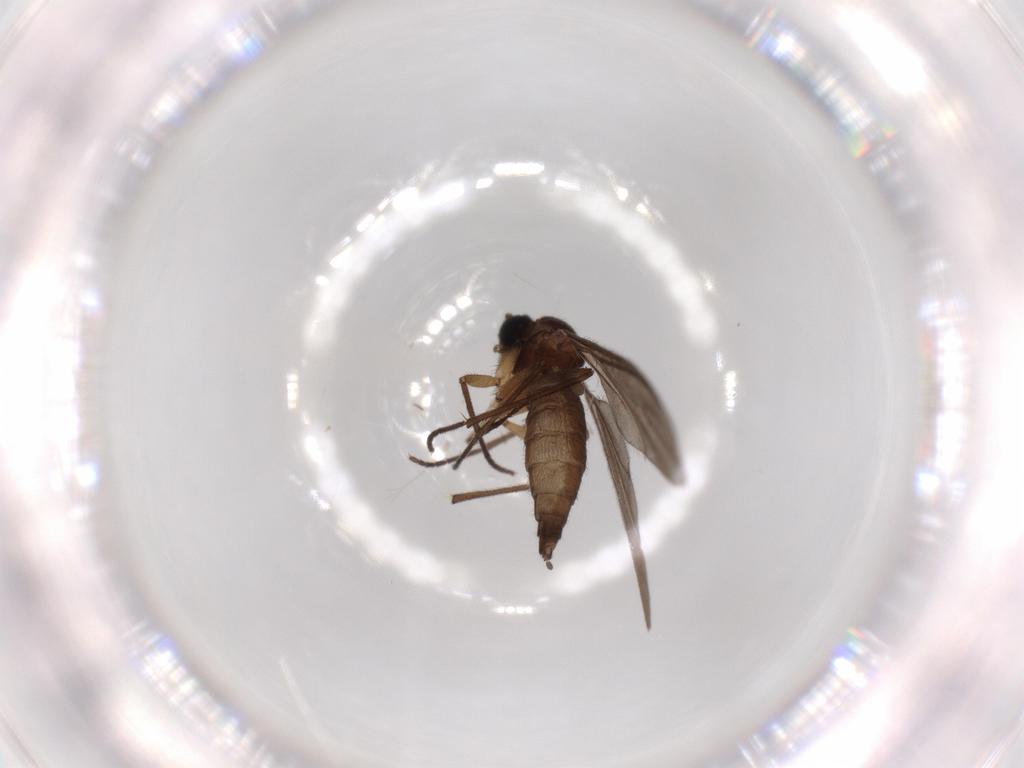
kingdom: Animalia
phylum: Arthropoda
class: Insecta
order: Diptera
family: Sciaridae
